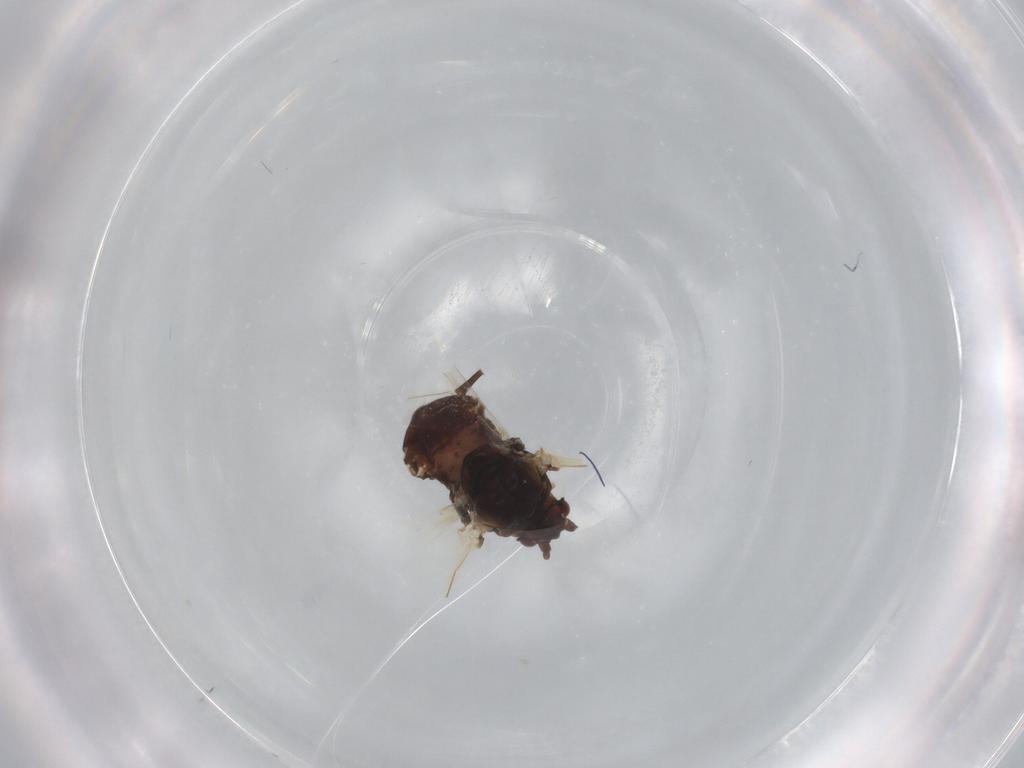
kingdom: Animalia
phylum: Arthropoda
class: Insecta
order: Hemiptera
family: Aphididae
